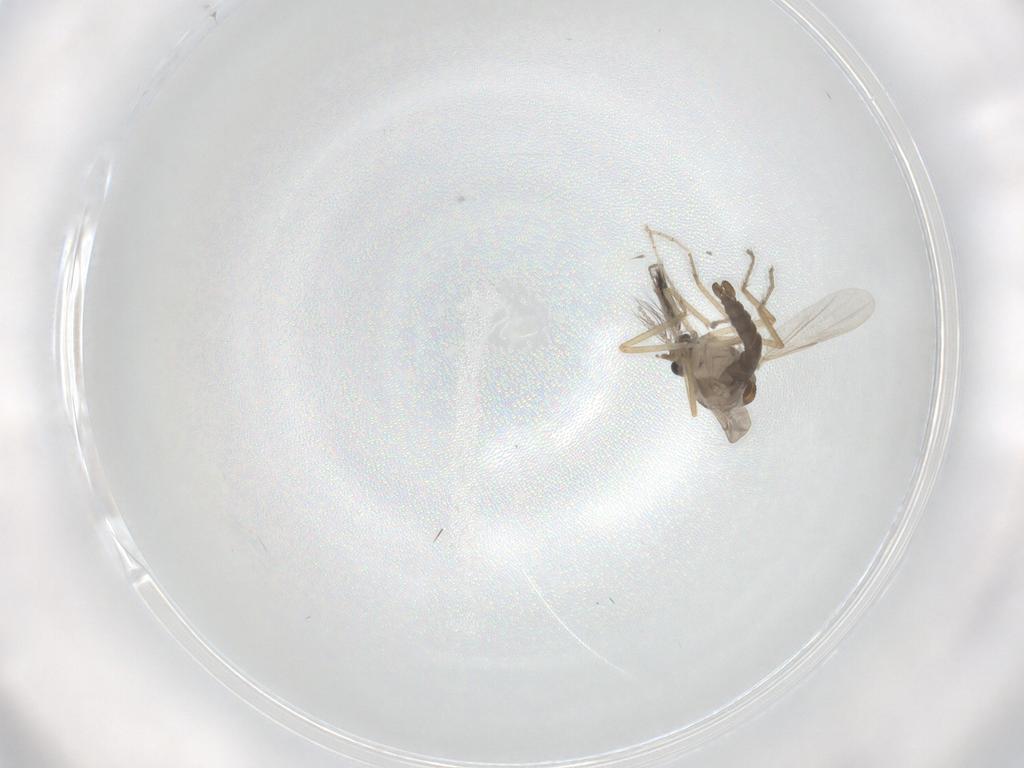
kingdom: Animalia
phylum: Arthropoda
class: Insecta
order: Diptera
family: Ceratopogonidae
